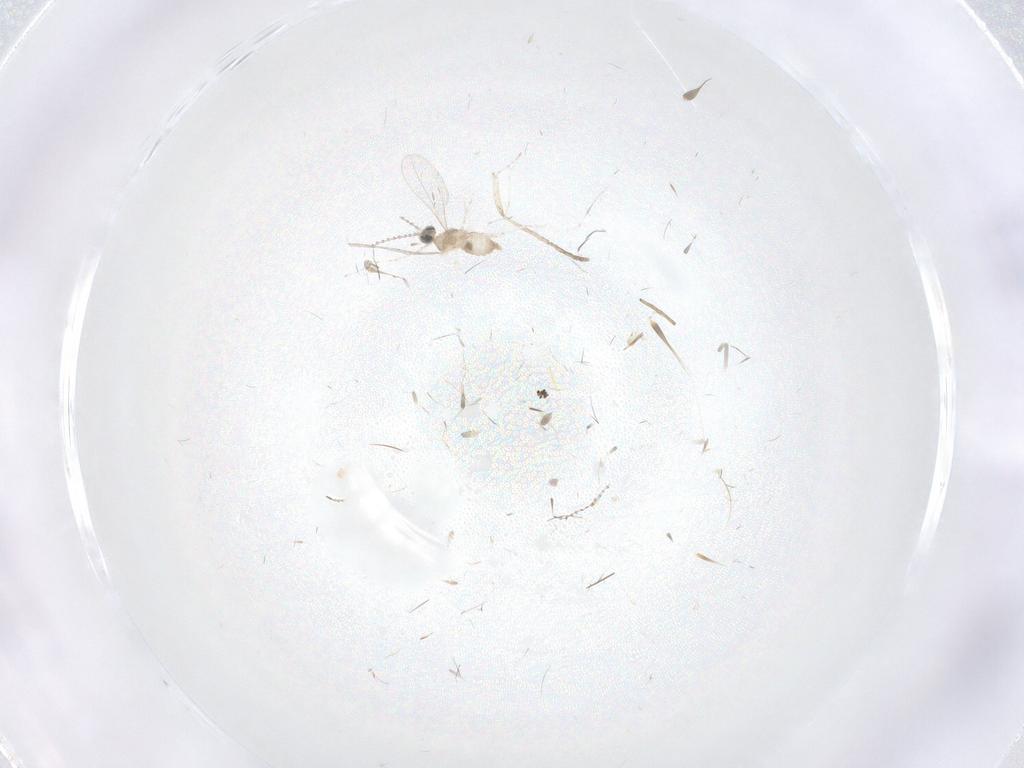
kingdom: Animalia
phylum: Arthropoda
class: Insecta
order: Diptera
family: Cecidomyiidae
